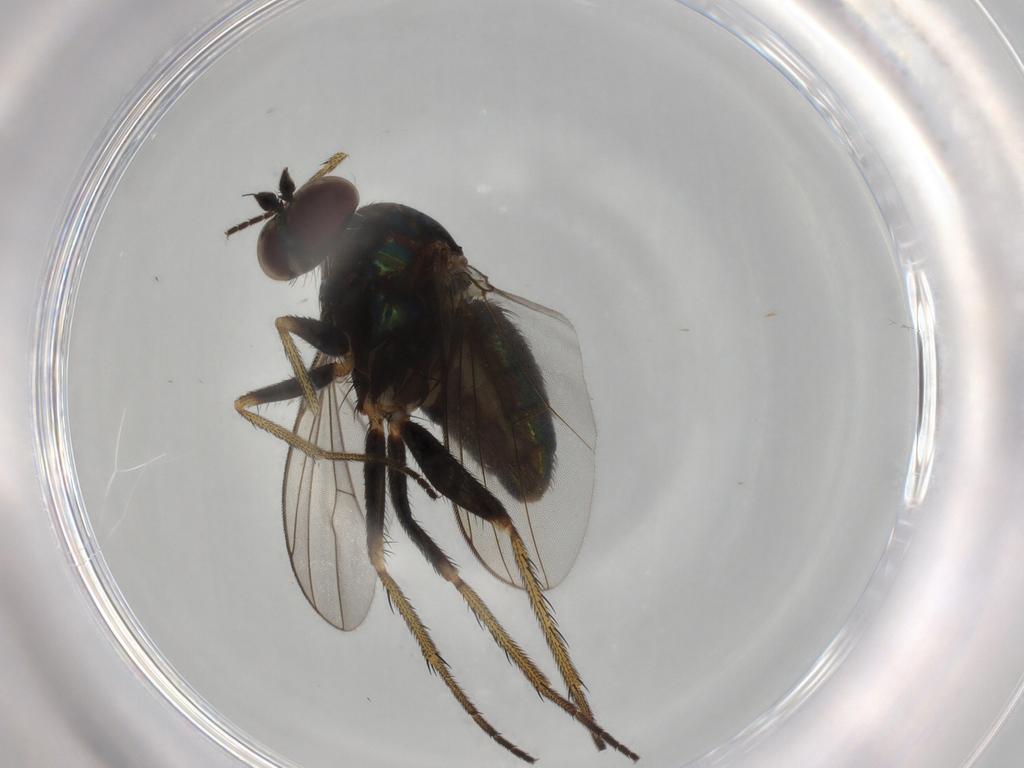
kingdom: Animalia
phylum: Arthropoda
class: Insecta
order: Diptera
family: Dolichopodidae
